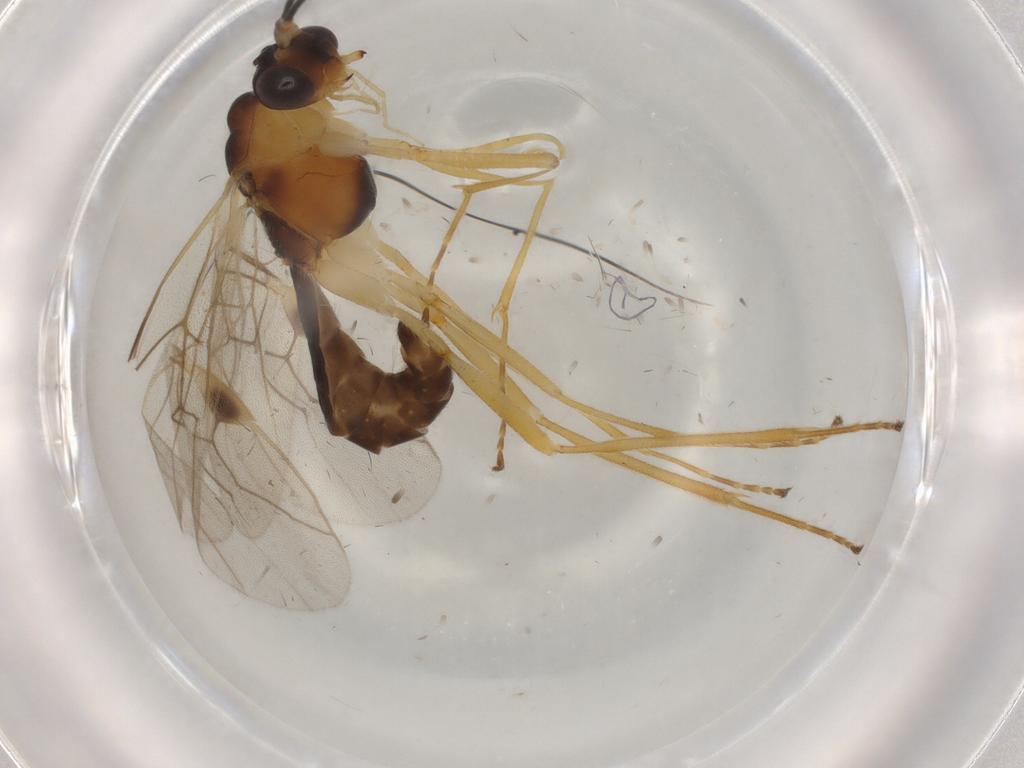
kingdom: Animalia
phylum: Arthropoda
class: Insecta
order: Hymenoptera
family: Braconidae
